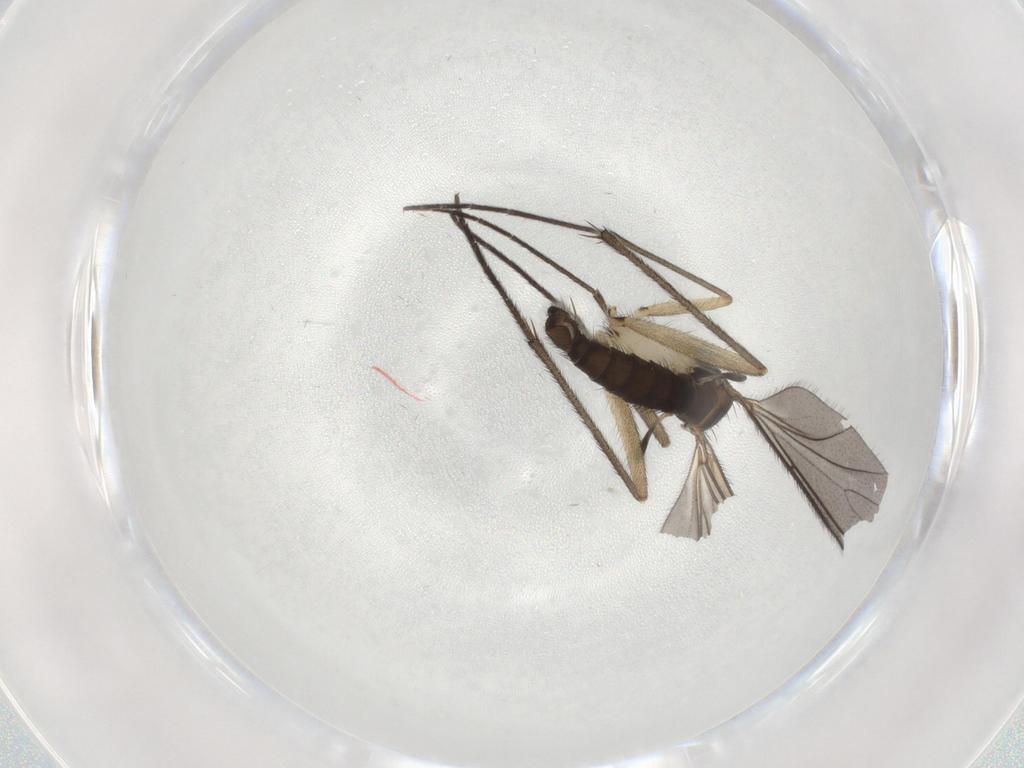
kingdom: Animalia
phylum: Arthropoda
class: Insecta
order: Diptera
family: Sciaridae
